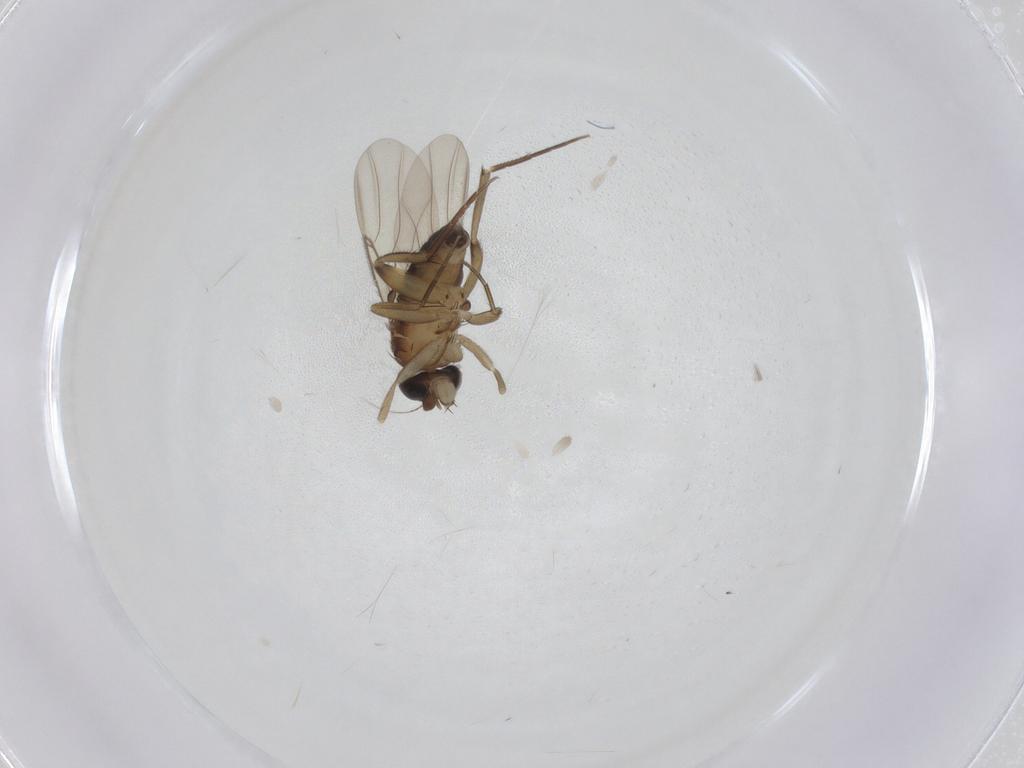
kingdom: Animalia
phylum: Arthropoda
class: Insecta
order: Diptera
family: Phoridae
